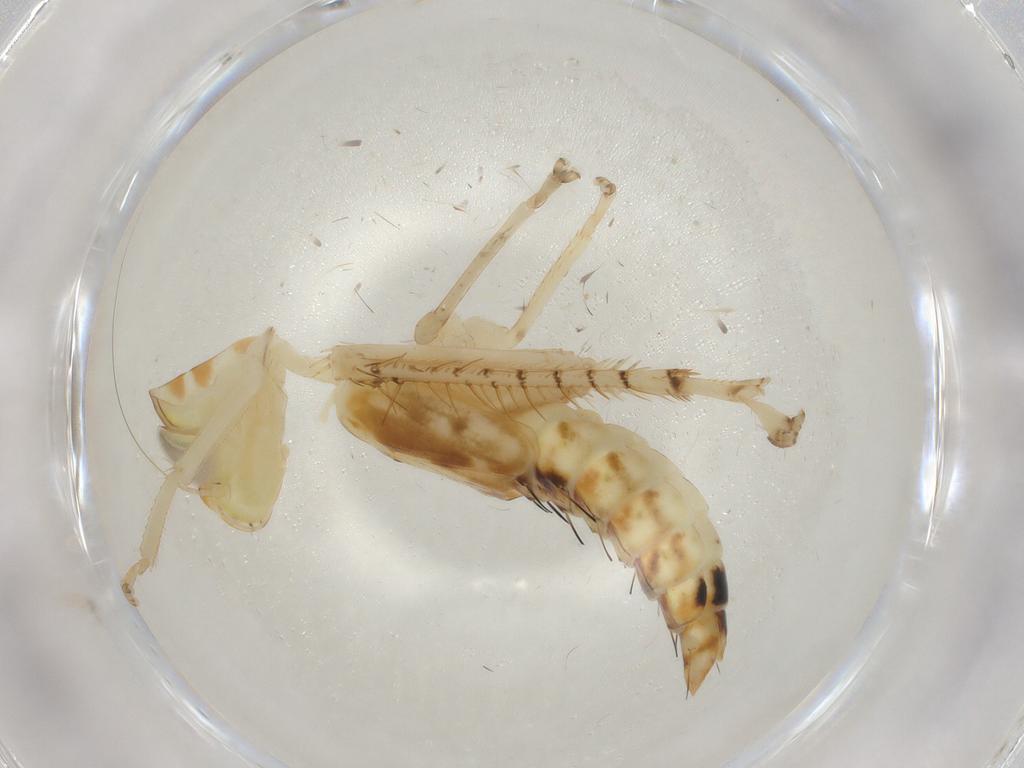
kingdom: Animalia
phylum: Arthropoda
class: Insecta
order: Hemiptera
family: Cicadellidae
